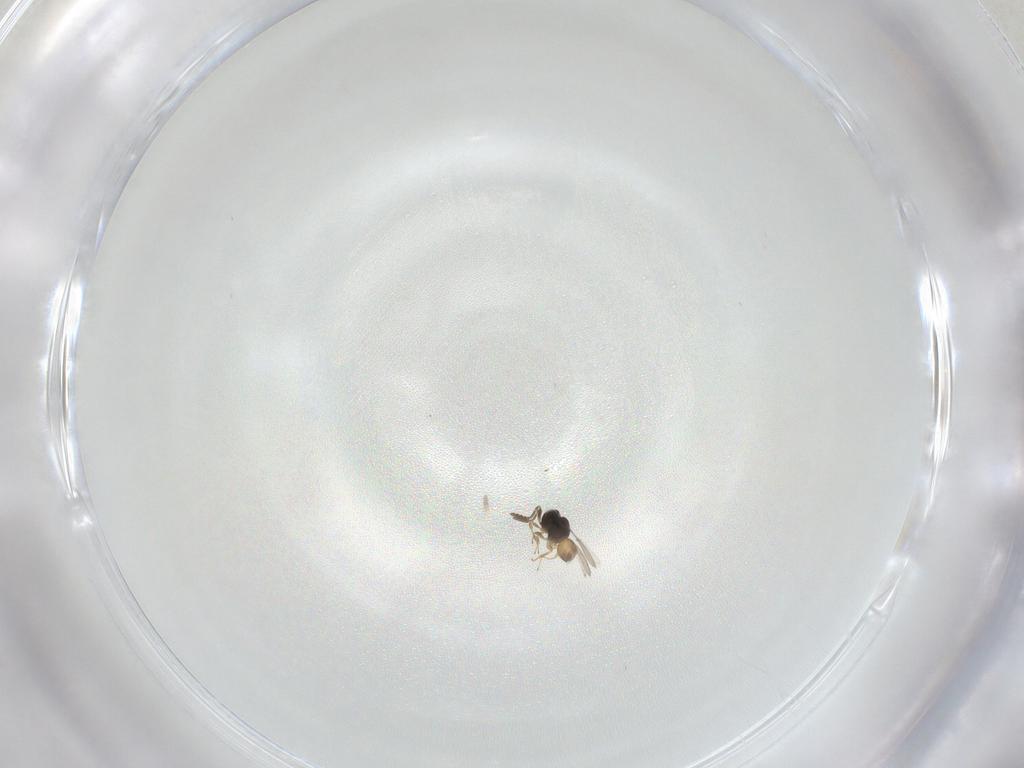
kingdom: Animalia
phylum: Arthropoda
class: Insecta
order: Hymenoptera
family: Scelionidae
